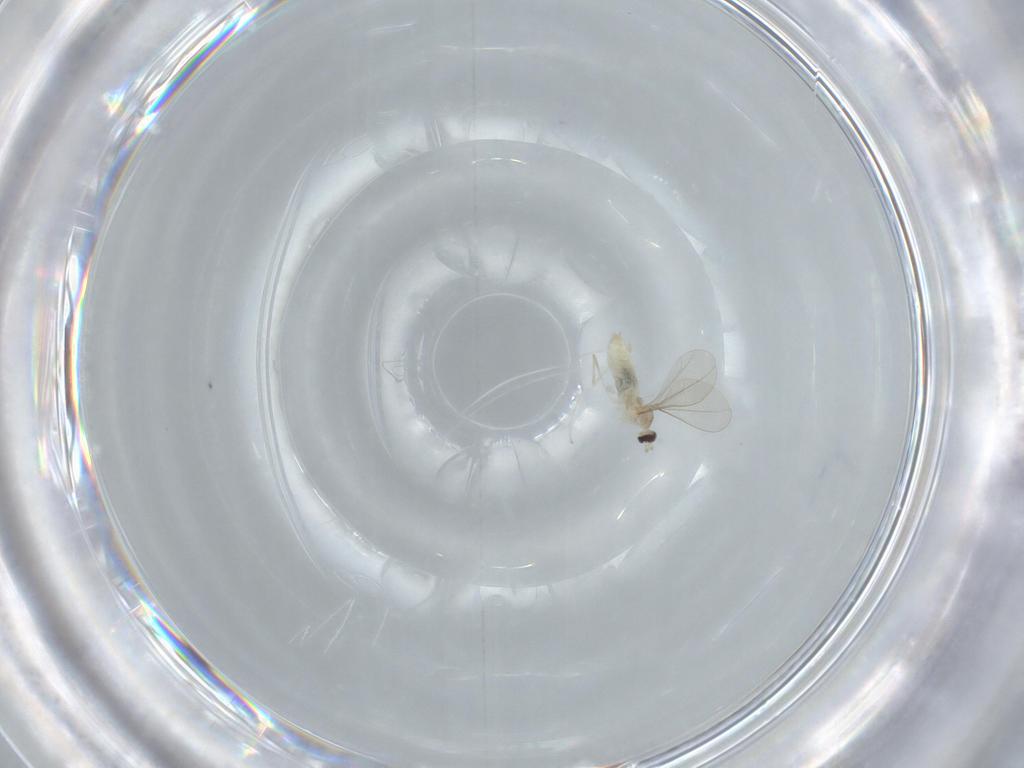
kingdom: Animalia
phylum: Arthropoda
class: Insecta
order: Diptera
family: Cecidomyiidae
